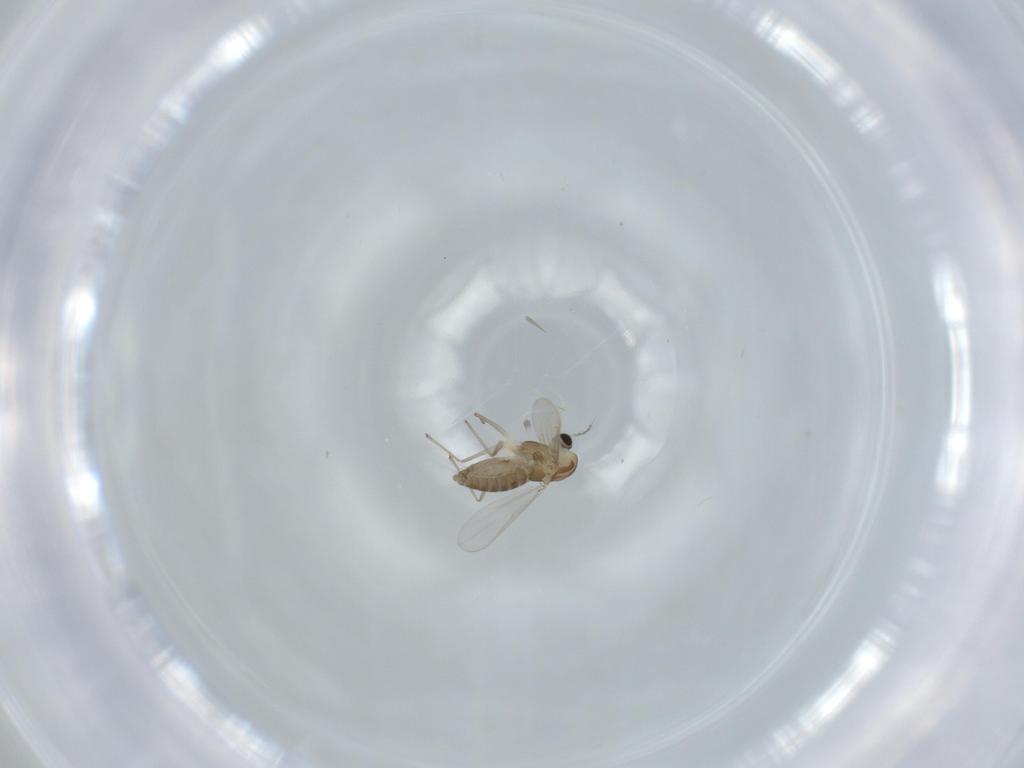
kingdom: Animalia
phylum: Arthropoda
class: Insecta
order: Diptera
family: Chironomidae
